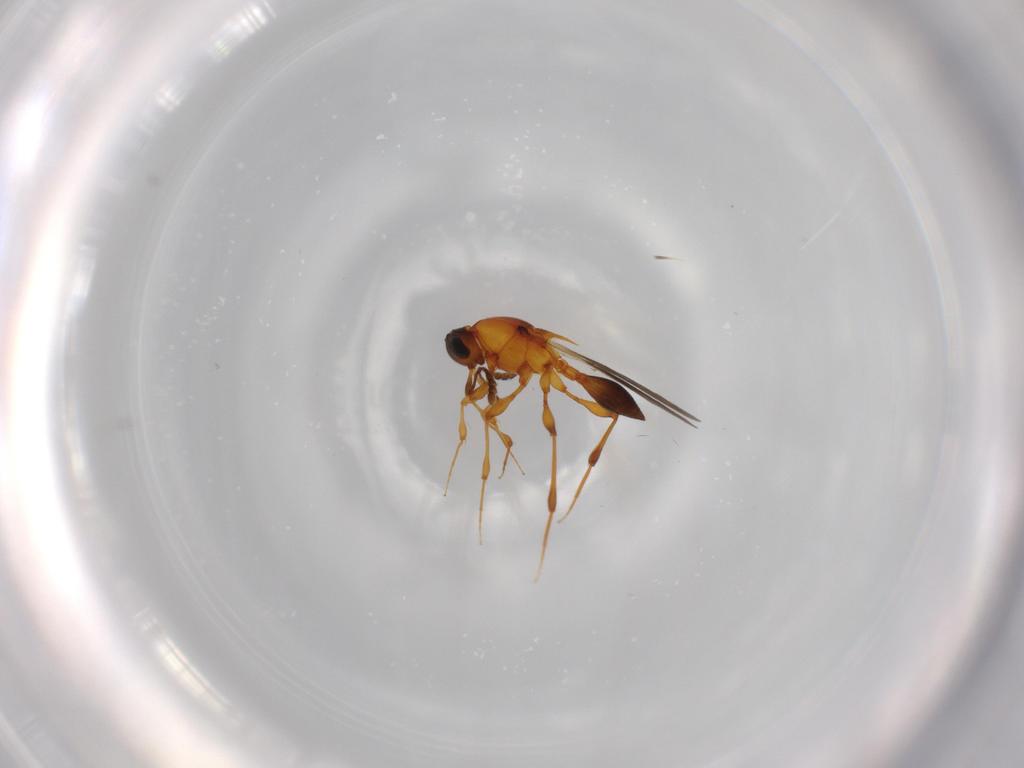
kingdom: Animalia
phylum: Arthropoda
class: Insecta
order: Hymenoptera
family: Platygastridae
